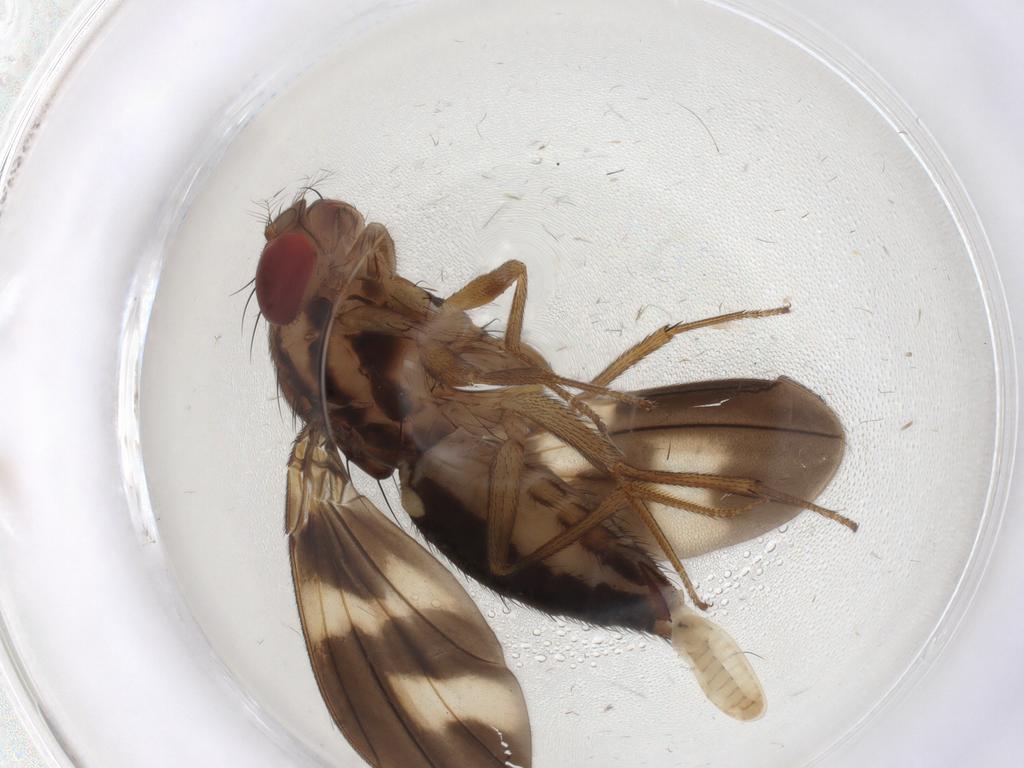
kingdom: Animalia
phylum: Arthropoda
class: Insecta
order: Diptera
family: Drosophilidae
